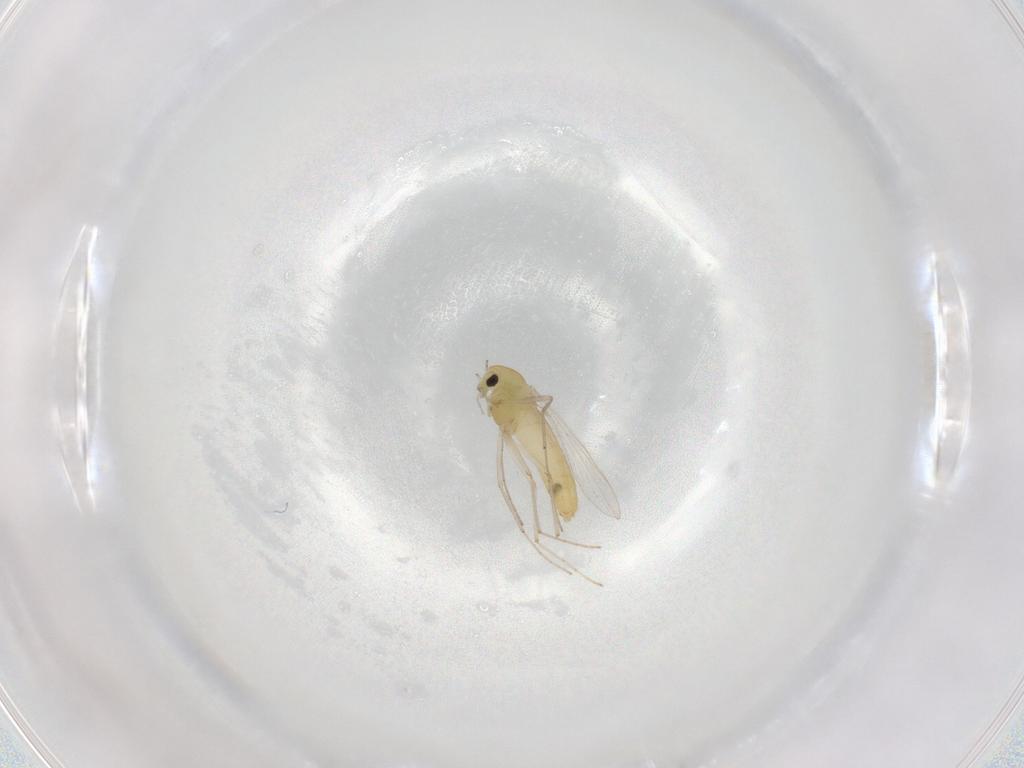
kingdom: Animalia
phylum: Arthropoda
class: Insecta
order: Diptera
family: Chironomidae
